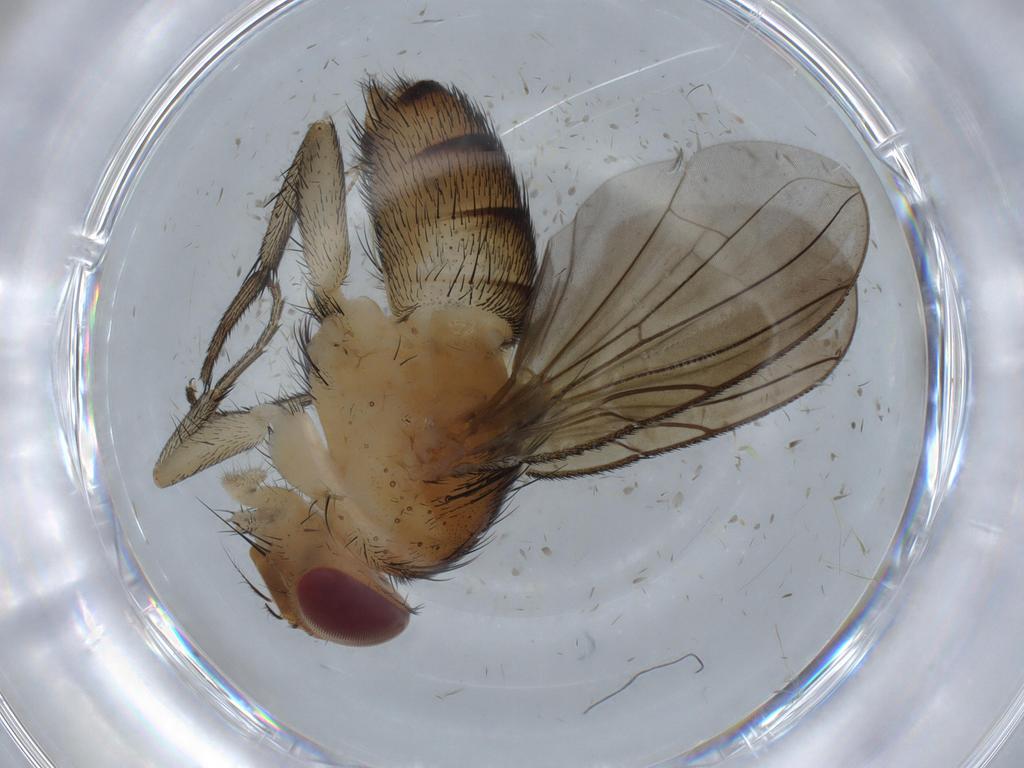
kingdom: Animalia
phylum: Arthropoda
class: Insecta
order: Diptera
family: Calliphoridae
